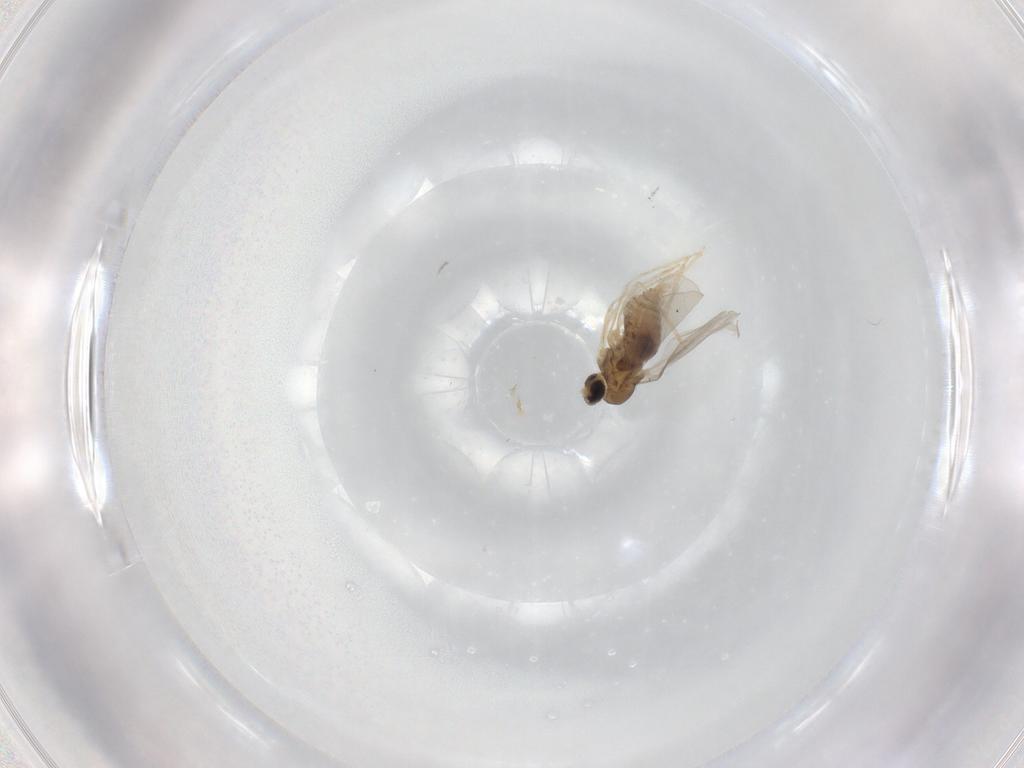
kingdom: Animalia
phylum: Arthropoda
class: Insecta
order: Diptera
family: Cecidomyiidae
